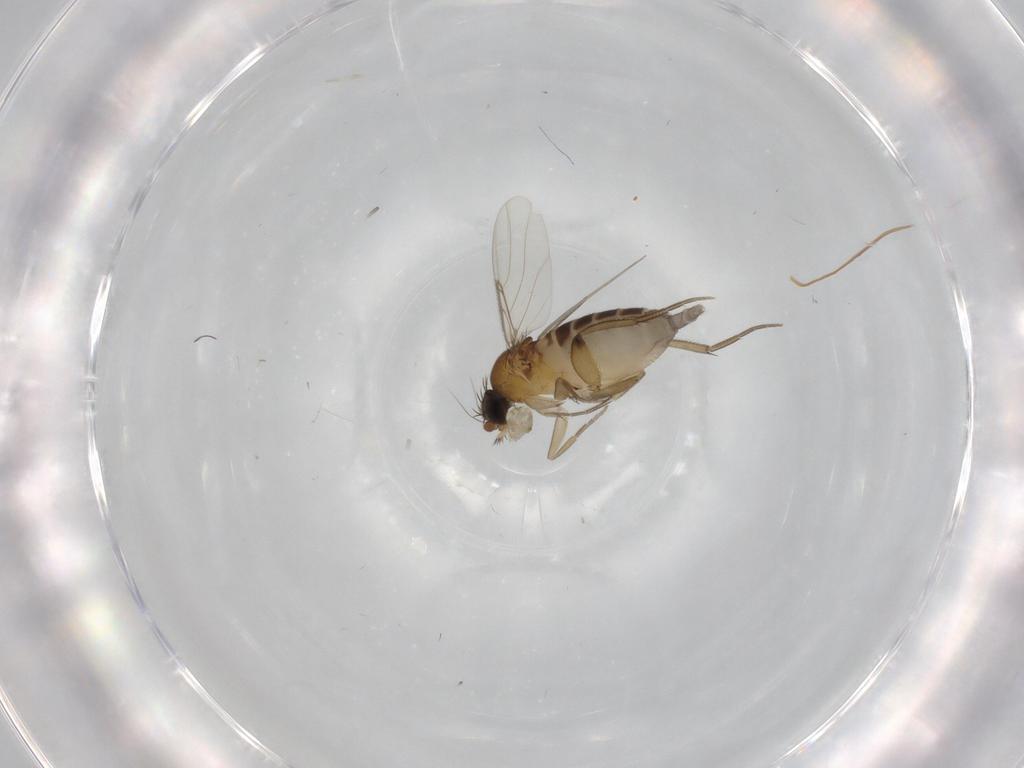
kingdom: Animalia
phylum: Arthropoda
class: Insecta
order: Diptera
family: Phoridae
